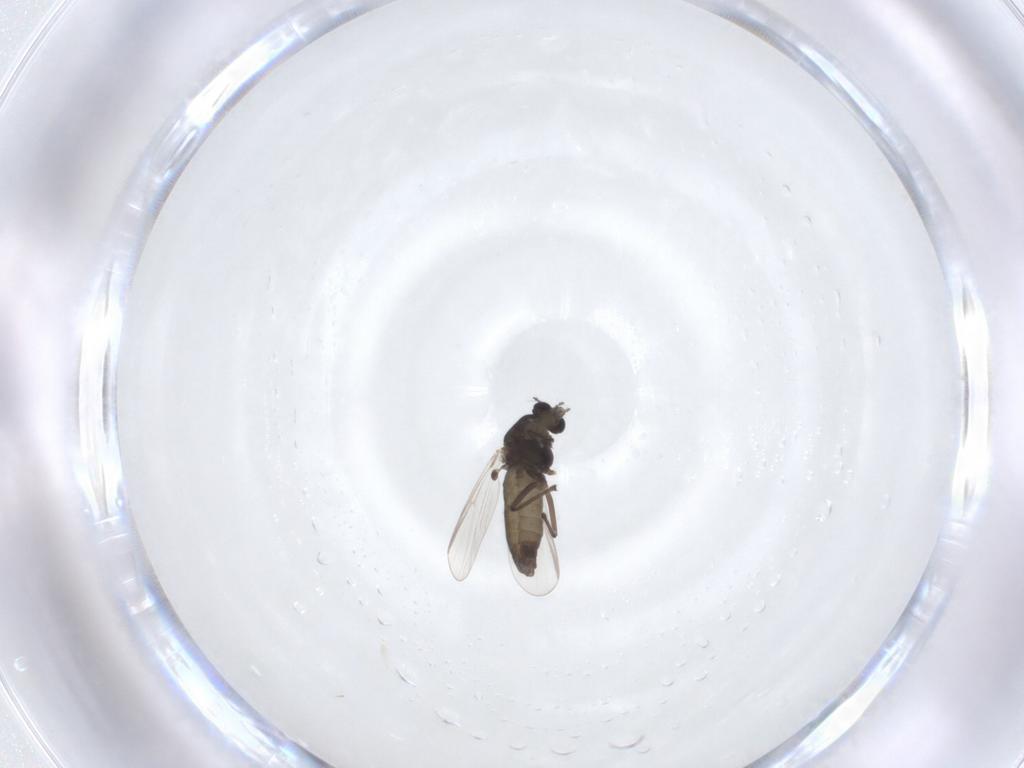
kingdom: Animalia
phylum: Arthropoda
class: Insecta
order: Diptera
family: Chironomidae
